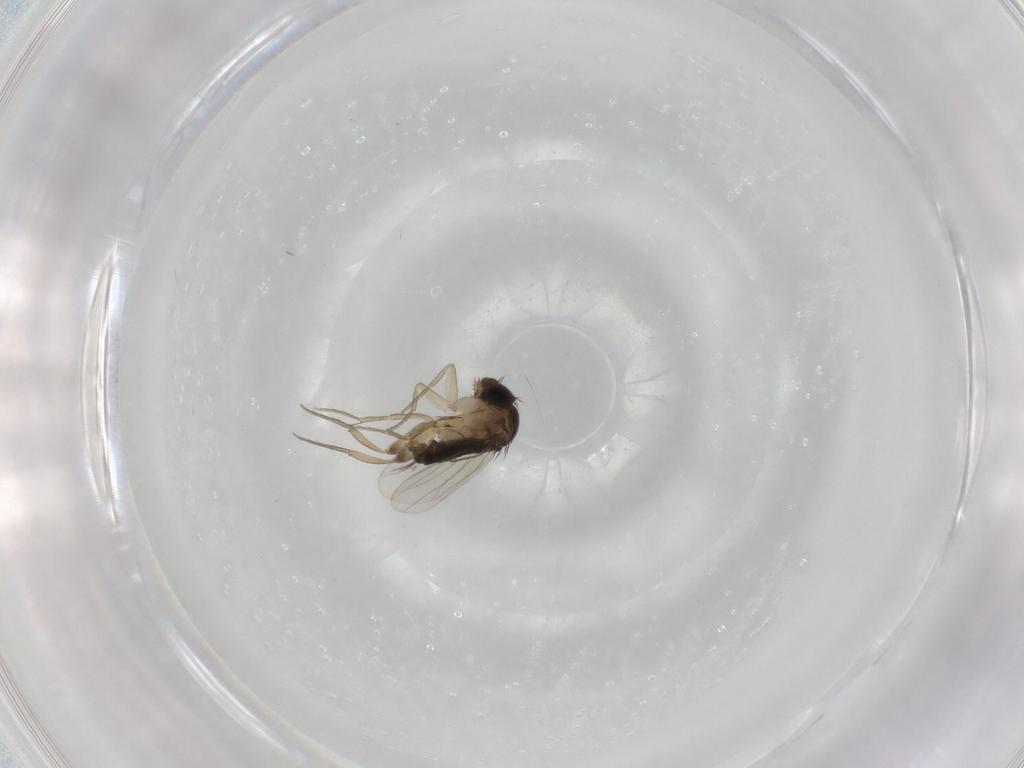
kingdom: Animalia
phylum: Arthropoda
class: Insecta
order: Diptera
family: Phoridae
